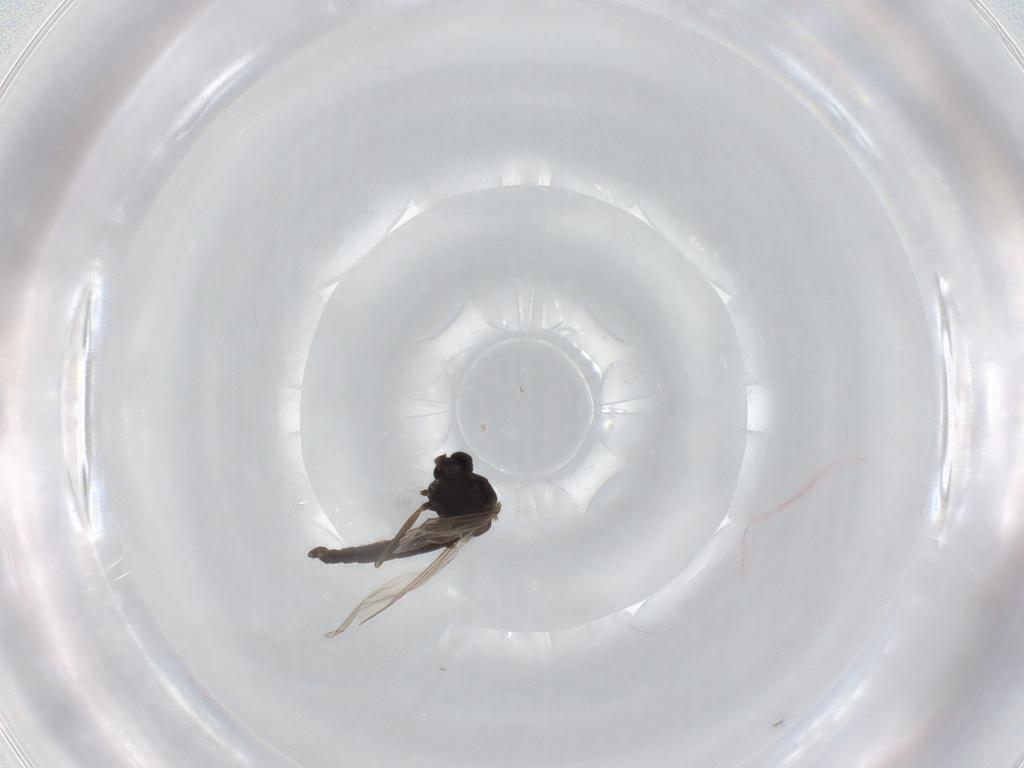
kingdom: Animalia
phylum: Arthropoda
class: Insecta
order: Diptera
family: Chironomidae
